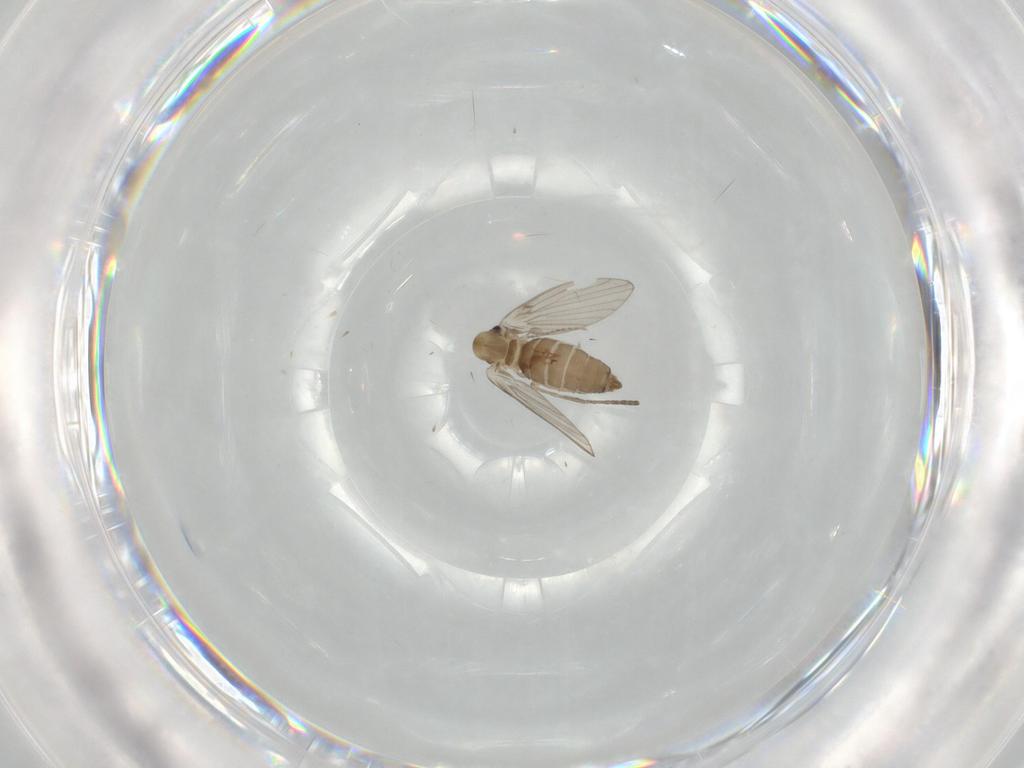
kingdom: Animalia
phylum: Arthropoda
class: Insecta
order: Diptera
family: Cecidomyiidae
